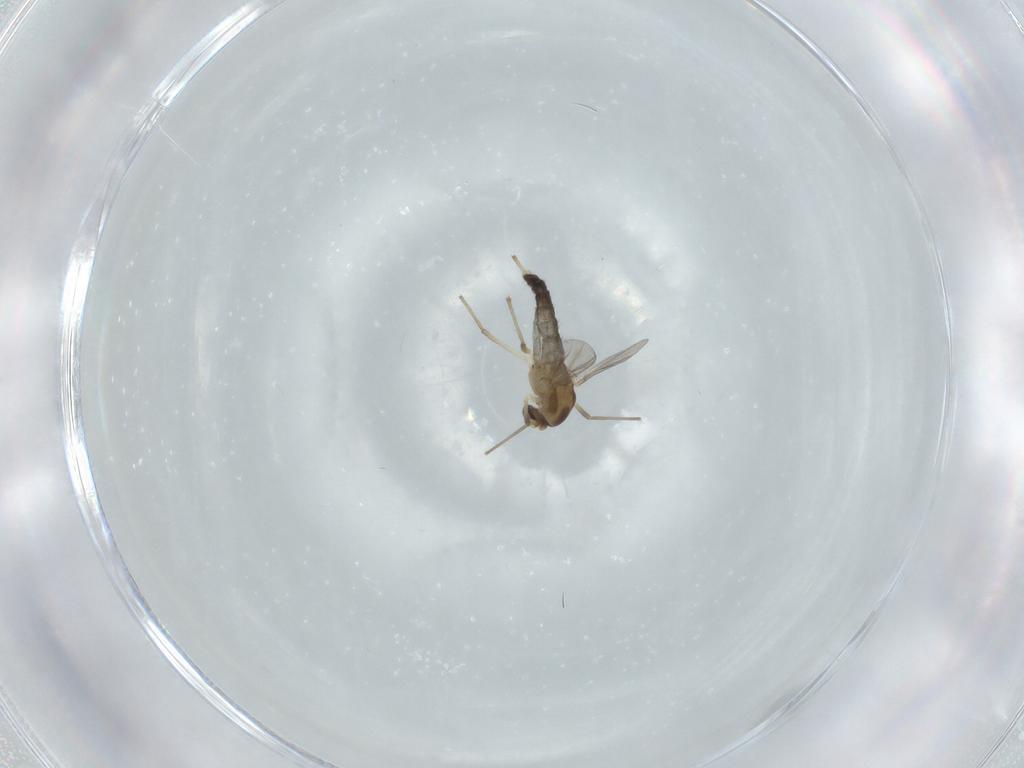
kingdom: Animalia
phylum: Arthropoda
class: Insecta
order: Diptera
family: Chironomidae
